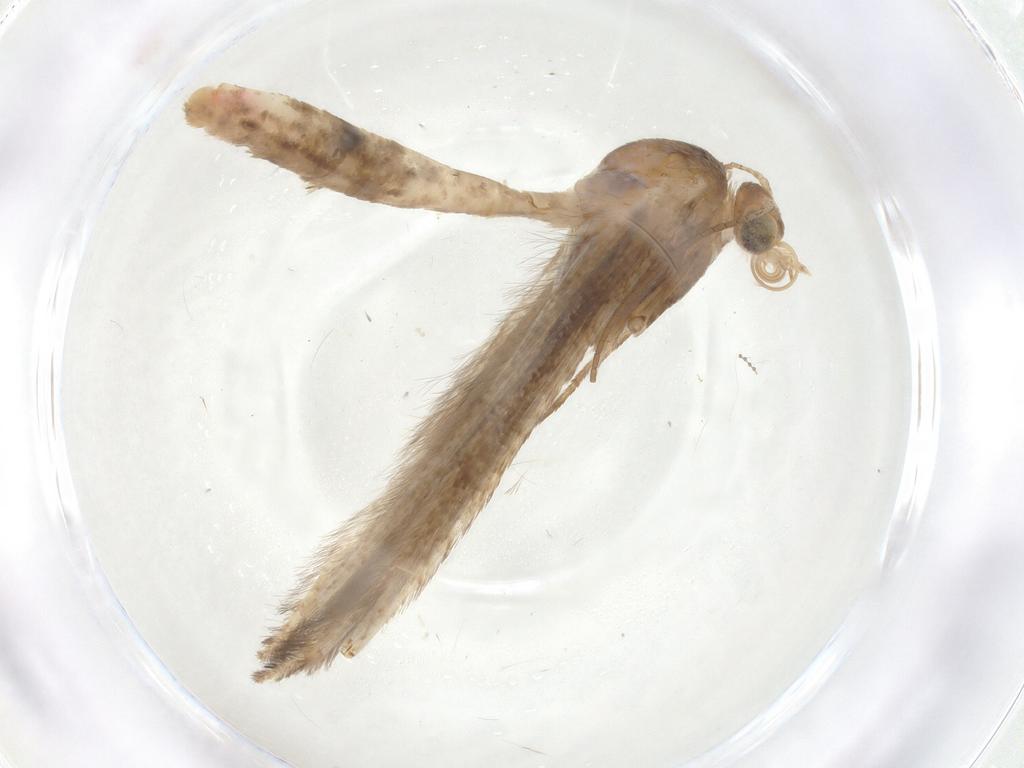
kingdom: Animalia
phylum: Arthropoda
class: Insecta
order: Lepidoptera
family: Pterophoridae
